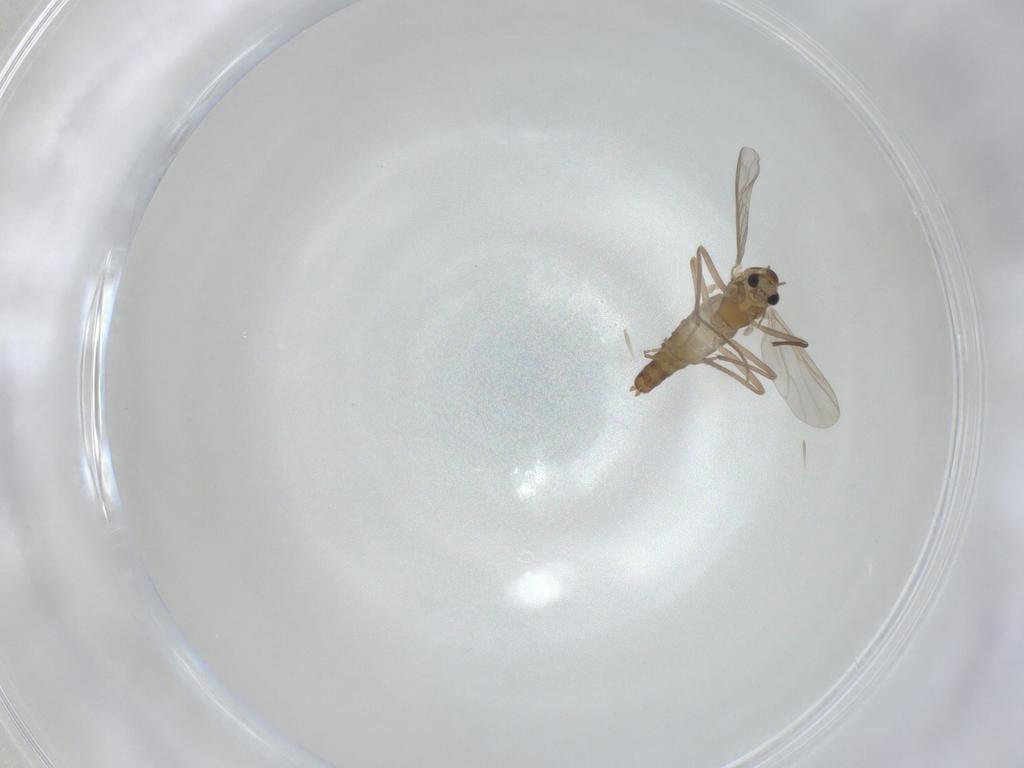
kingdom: Animalia
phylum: Arthropoda
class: Insecta
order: Diptera
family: Chironomidae
